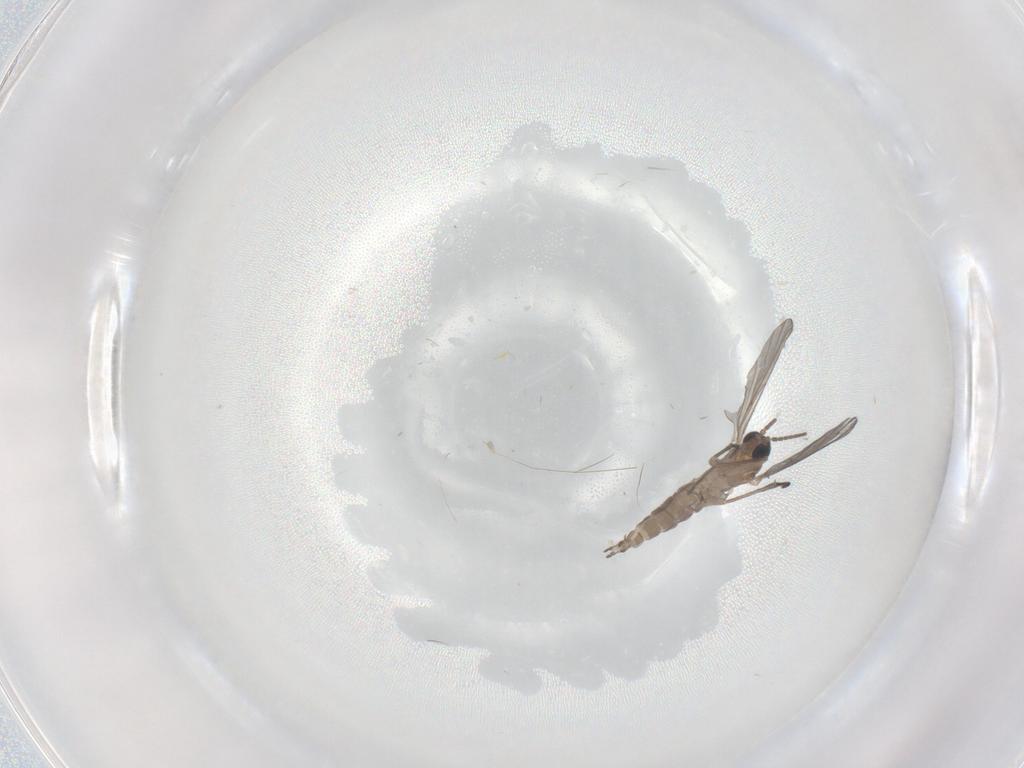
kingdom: Animalia
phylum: Arthropoda
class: Insecta
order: Diptera
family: Sciaridae
